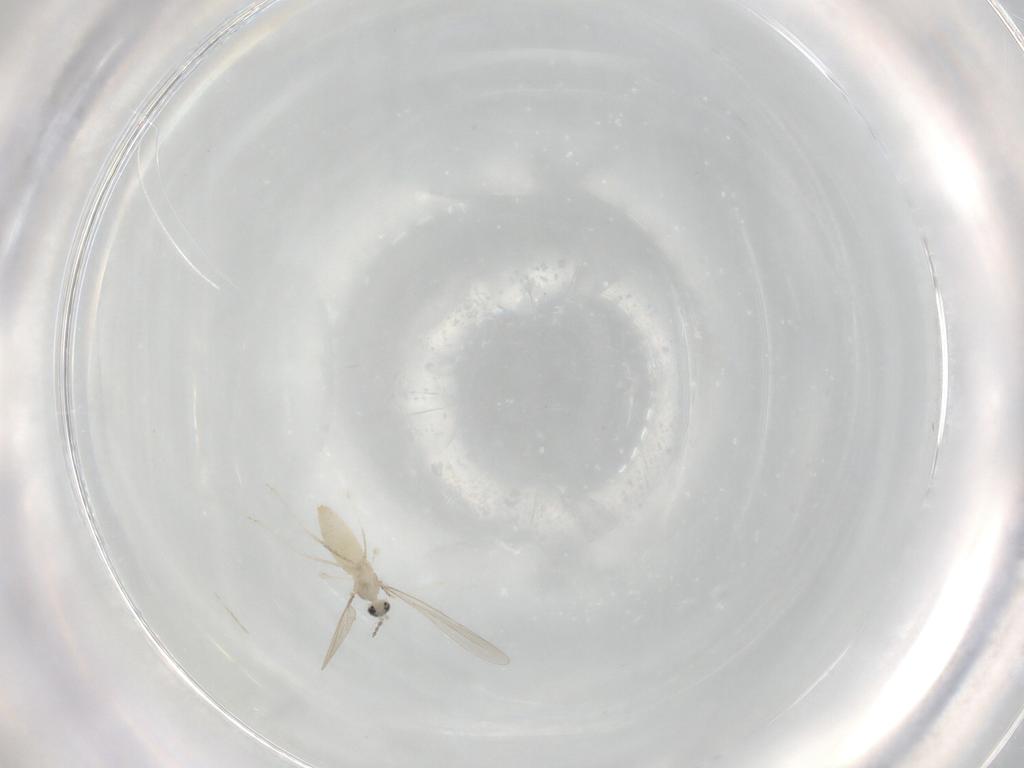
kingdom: Animalia
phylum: Arthropoda
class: Insecta
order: Diptera
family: Cecidomyiidae
